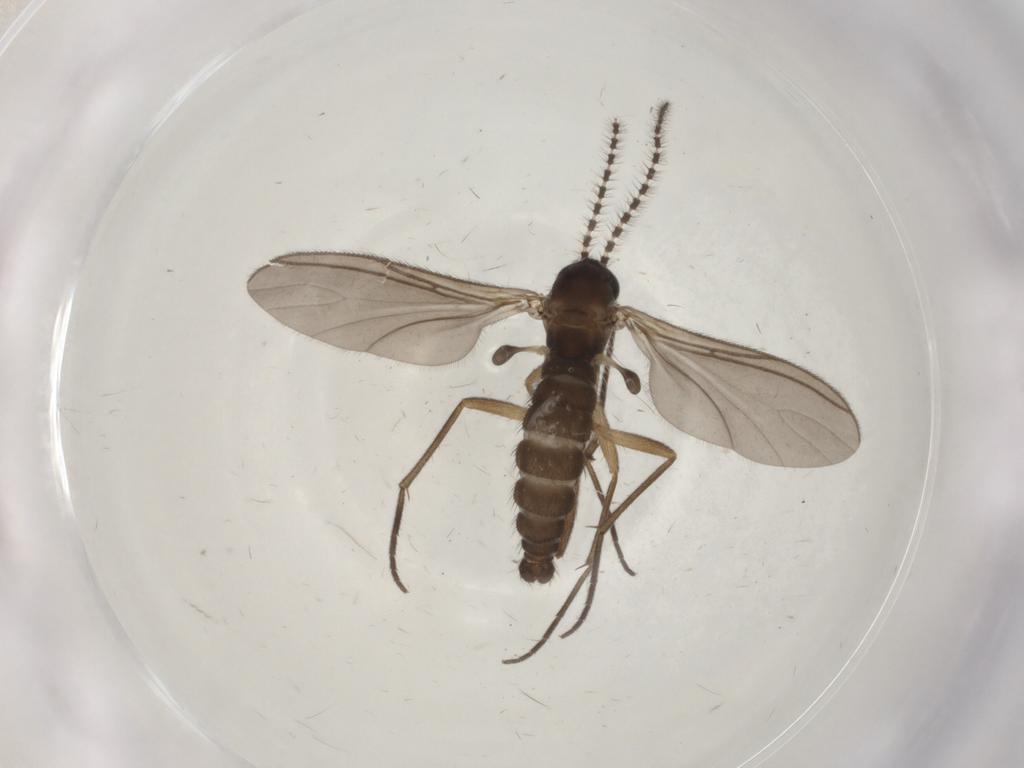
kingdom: Animalia
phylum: Arthropoda
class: Insecta
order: Diptera
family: Sciaridae
